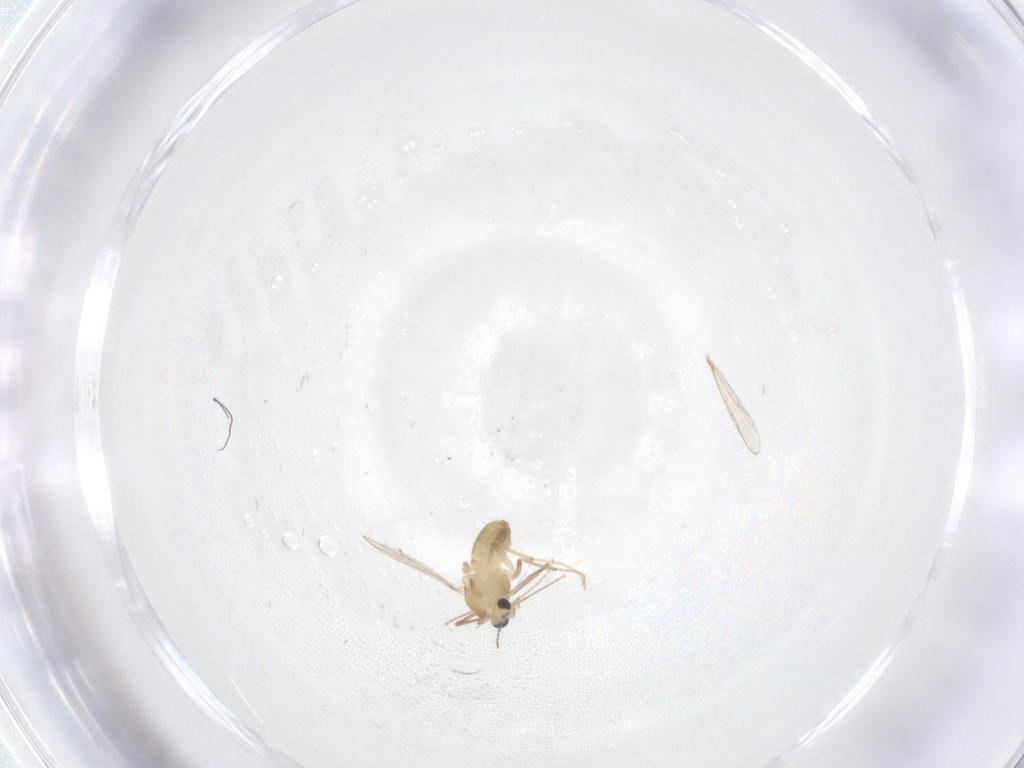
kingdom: Animalia
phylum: Arthropoda
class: Insecta
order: Diptera
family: Chironomidae
